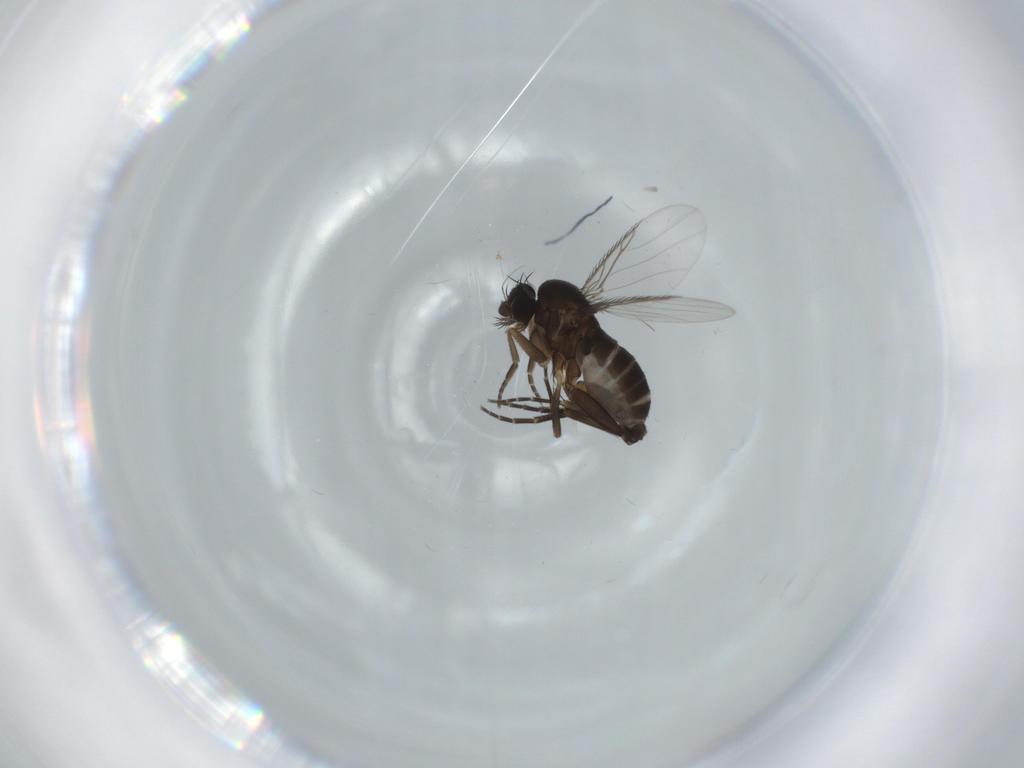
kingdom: Animalia
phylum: Arthropoda
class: Insecta
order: Diptera
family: Phoridae
